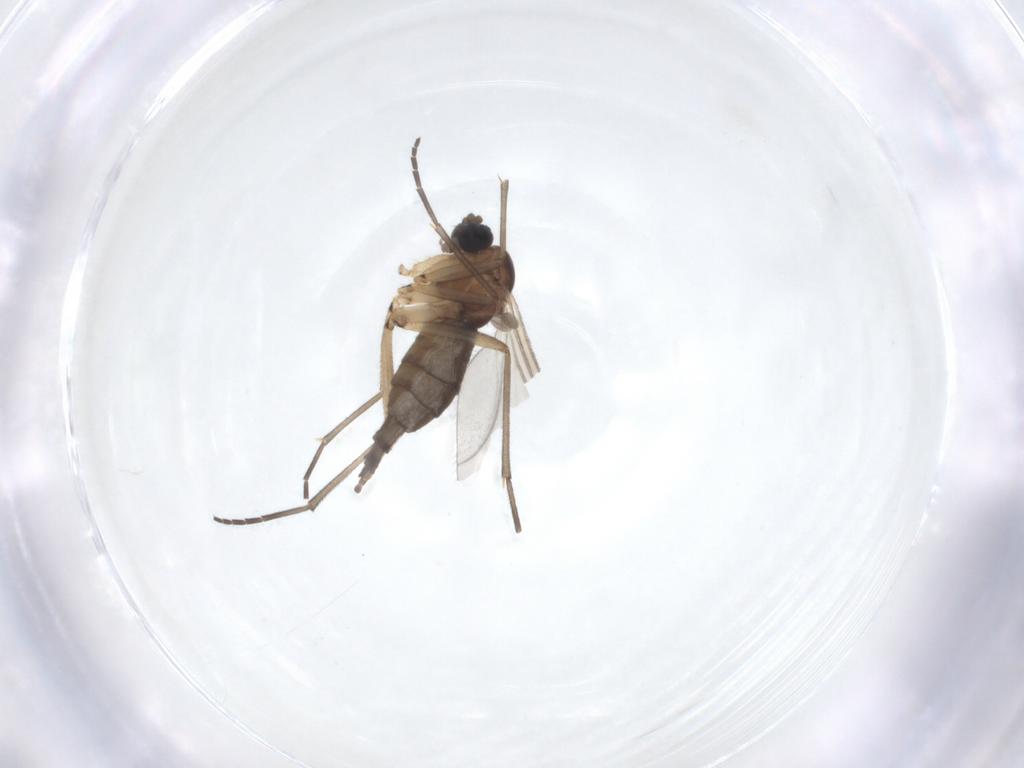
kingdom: Animalia
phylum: Arthropoda
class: Insecta
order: Diptera
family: Sciaridae
